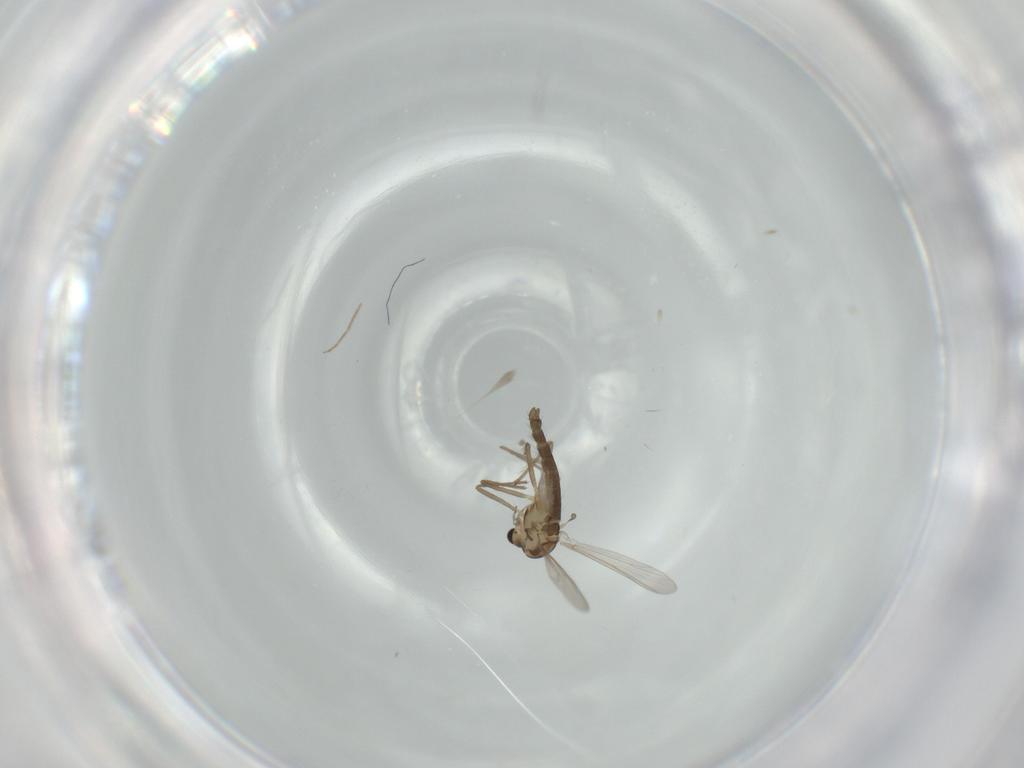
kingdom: Animalia
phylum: Arthropoda
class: Insecta
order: Diptera
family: Chironomidae
